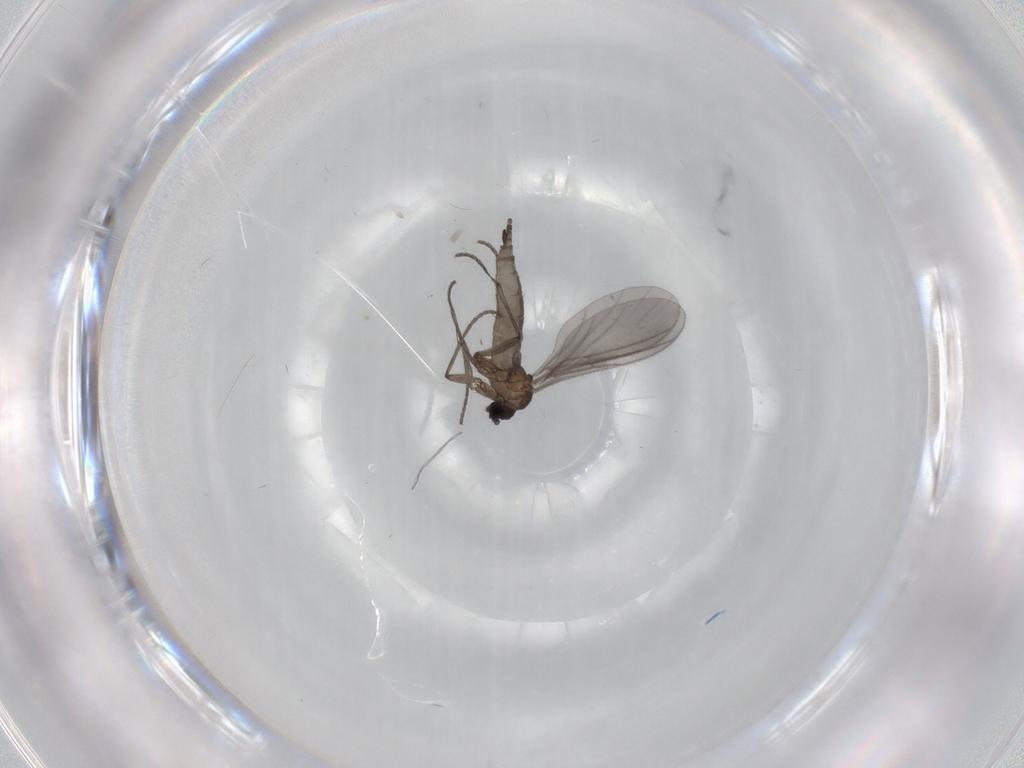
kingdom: Animalia
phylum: Arthropoda
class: Insecta
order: Diptera
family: Sciaridae
